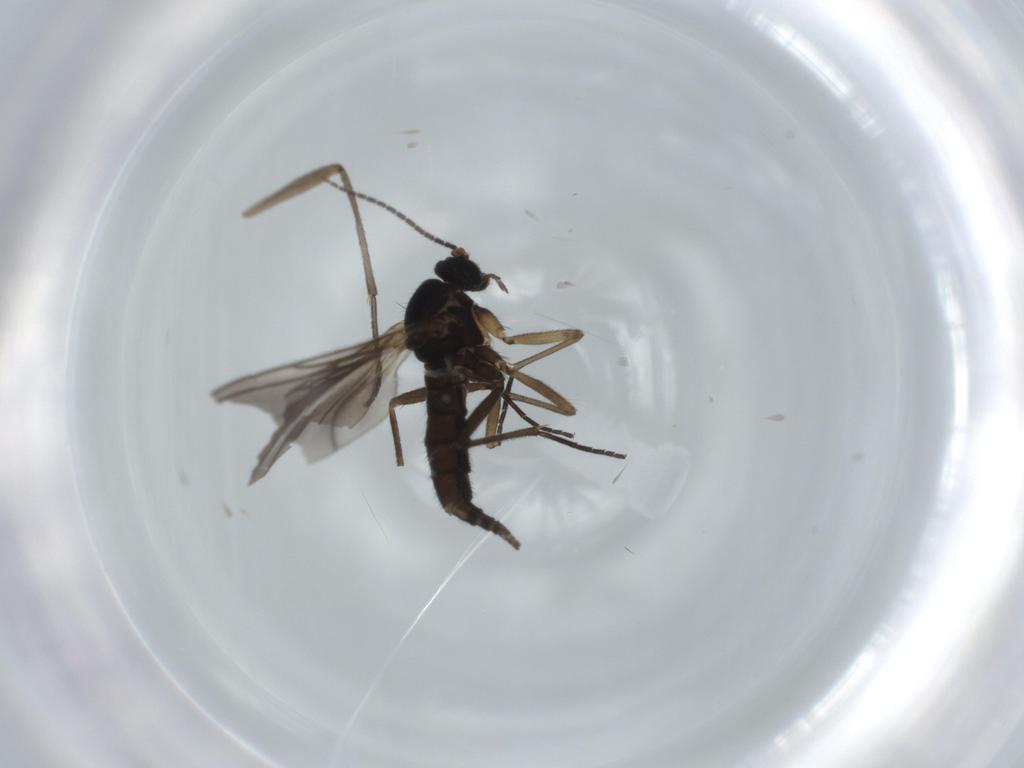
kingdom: Animalia
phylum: Arthropoda
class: Insecta
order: Diptera
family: Sciaridae
